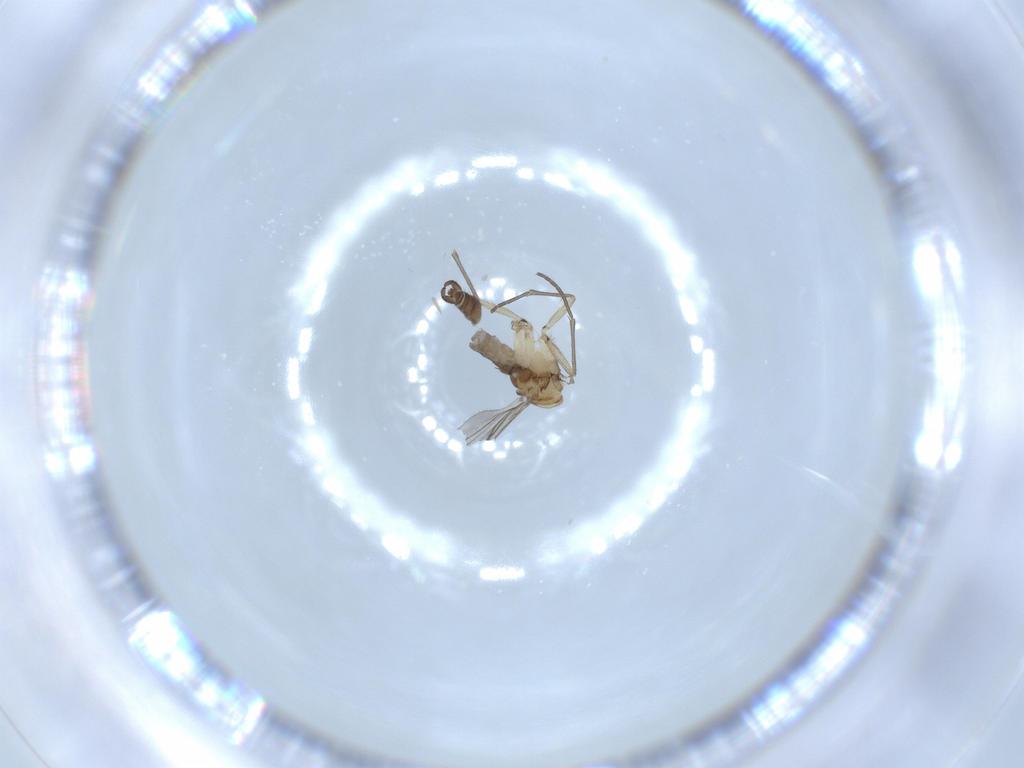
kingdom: Animalia
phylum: Arthropoda
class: Insecta
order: Diptera
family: Sciaridae
